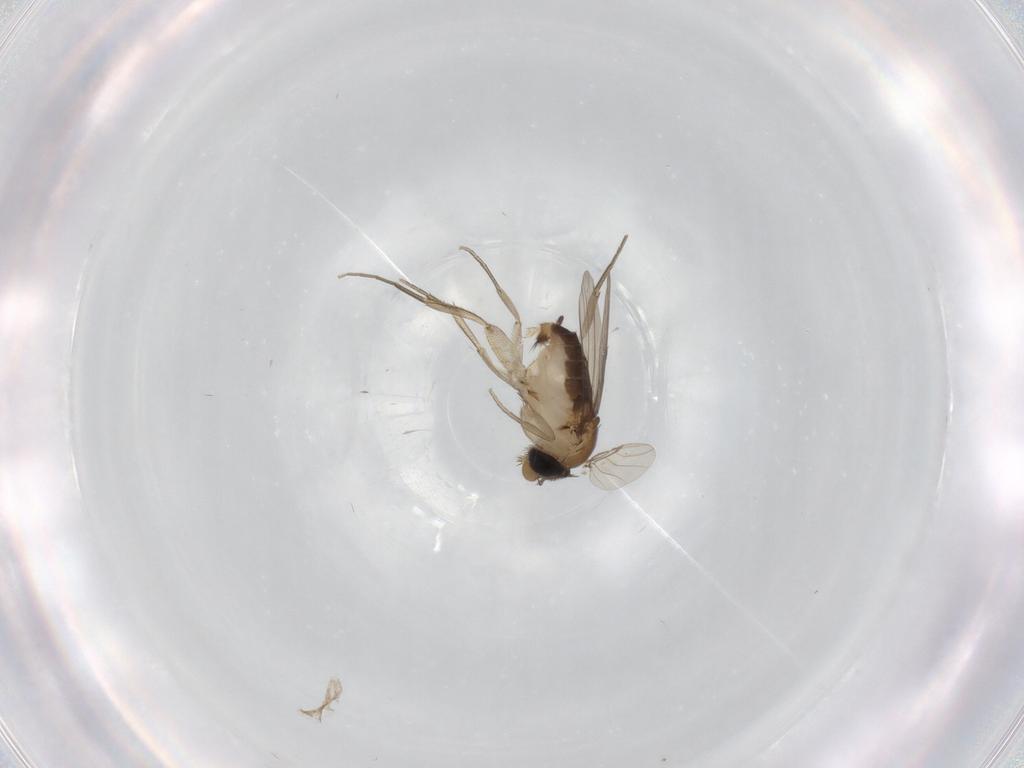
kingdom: Animalia
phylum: Arthropoda
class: Insecta
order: Diptera
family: Phoridae
